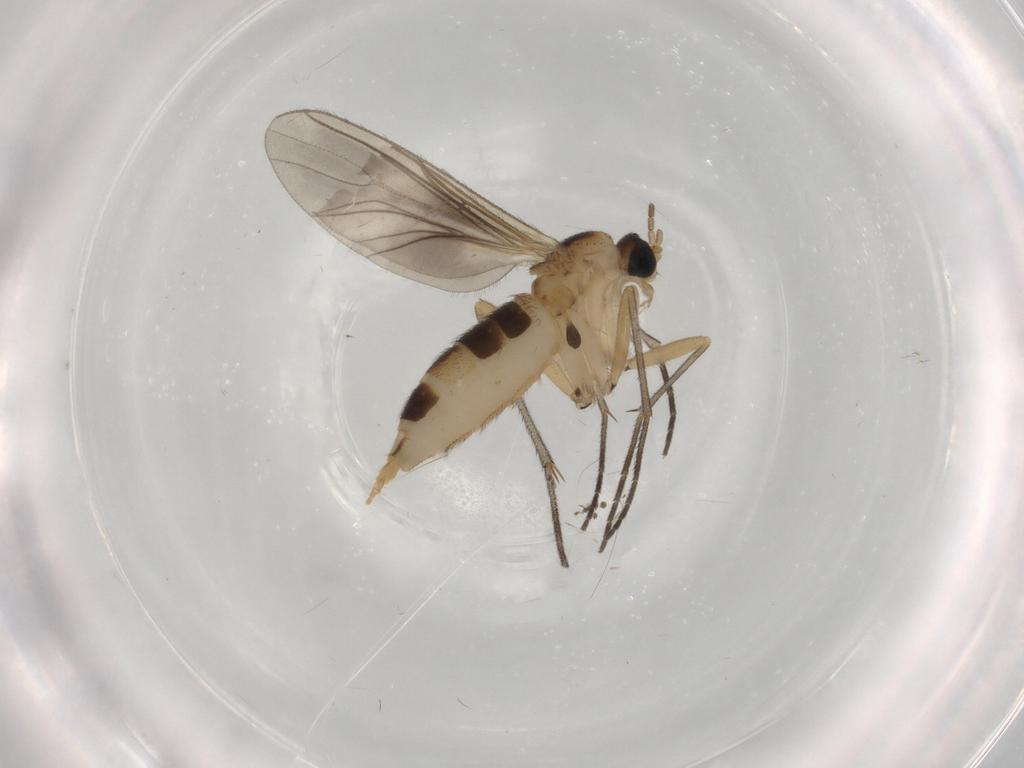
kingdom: Animalia
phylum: Arthropoda
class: Insecta
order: Diptera
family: Sciaridae
